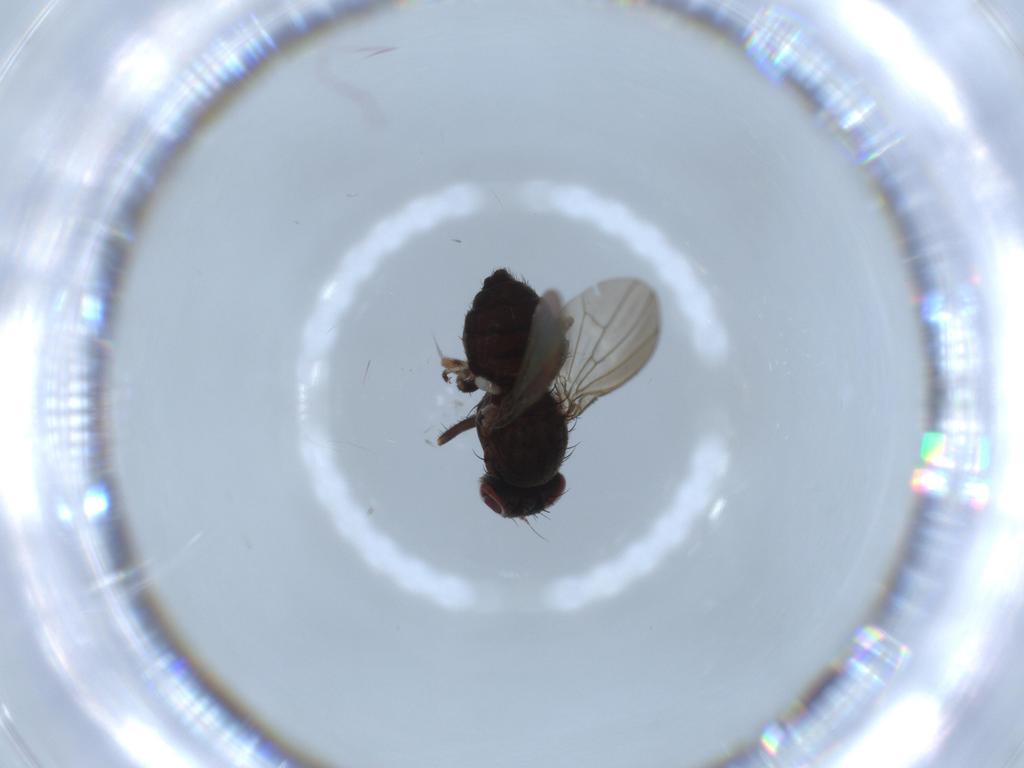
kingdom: Animalia
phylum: Arthropoda
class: Insecta
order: Diptera
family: Heleomyzidae
